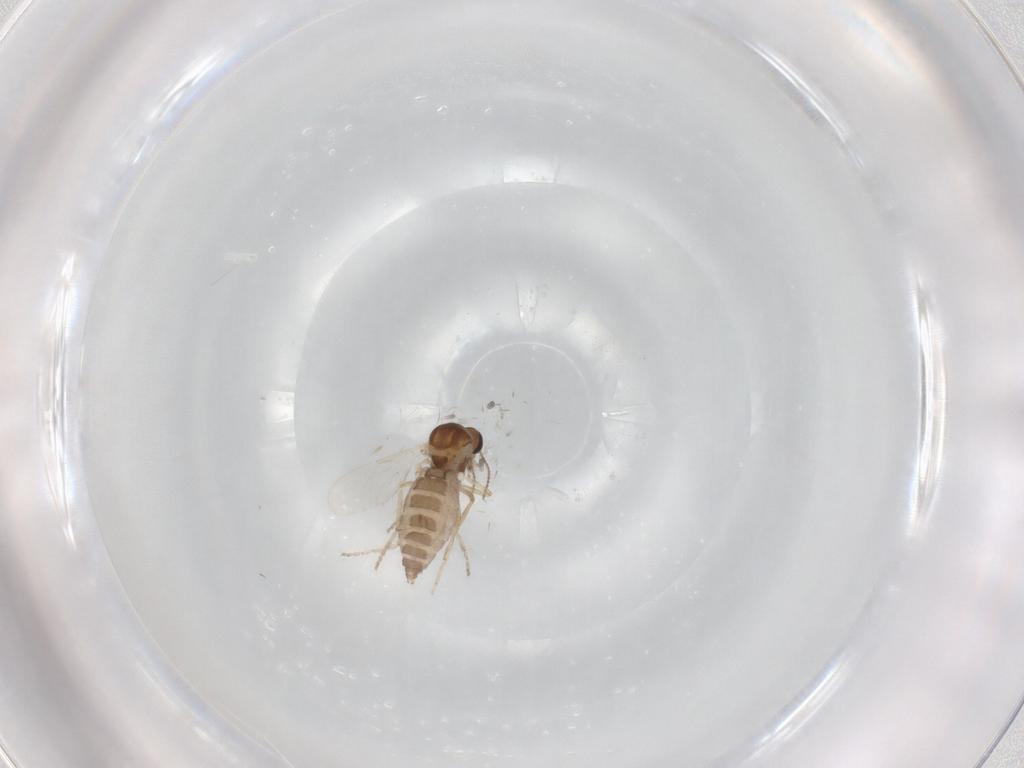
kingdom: Animalia
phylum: Arthropoda
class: Insecta
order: Diptera
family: Ceratopogonidae
